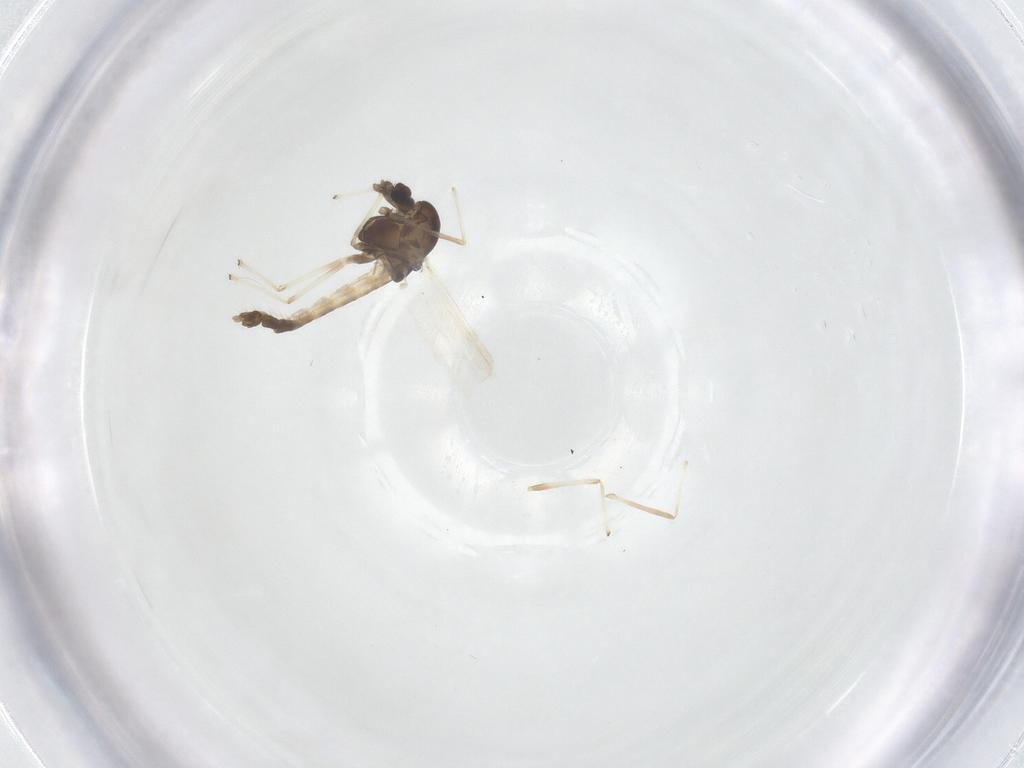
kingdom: Animalia
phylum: Arthropoda
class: Insecta
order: Diptera
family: Chironomidae
